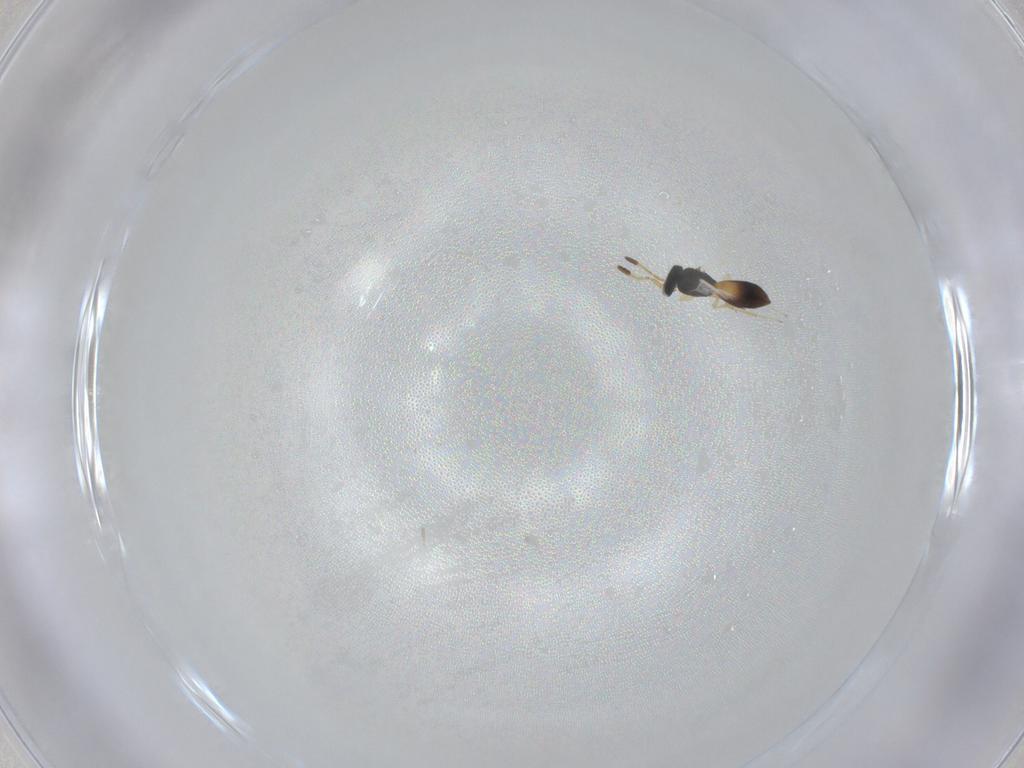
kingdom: Animalia
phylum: Arthropoda
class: Insecta
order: Hymenoptera
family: Scelionidae
